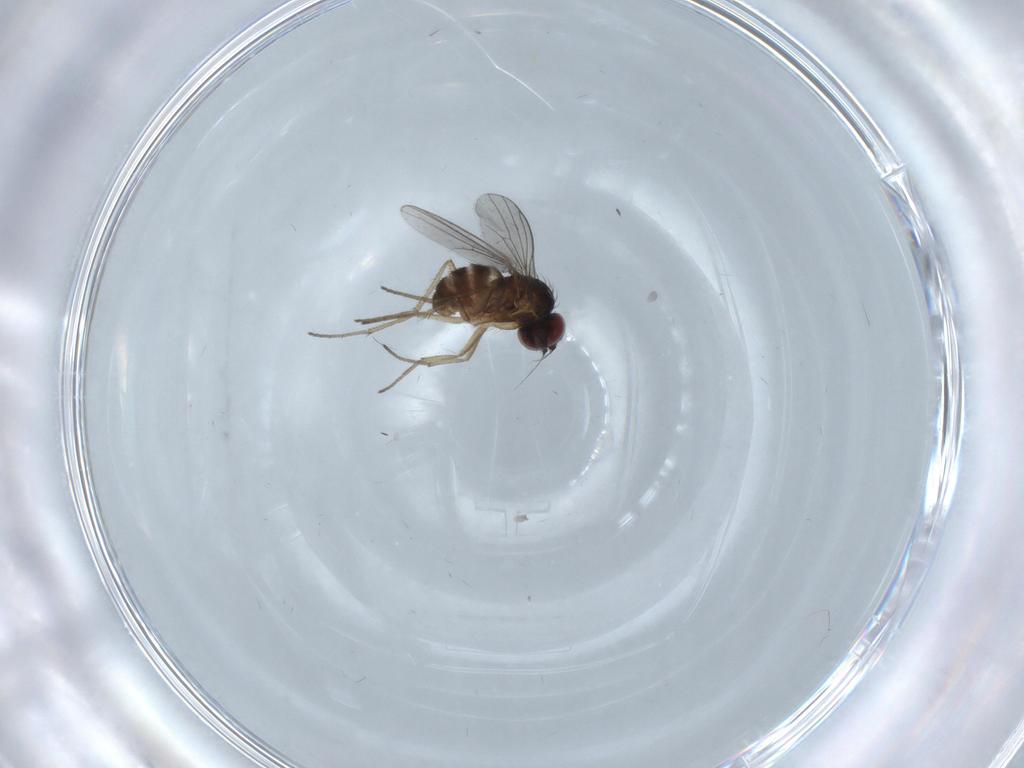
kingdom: Animalia
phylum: Arthropoda
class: Insecta
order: Diptera
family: Dolichopodidae
